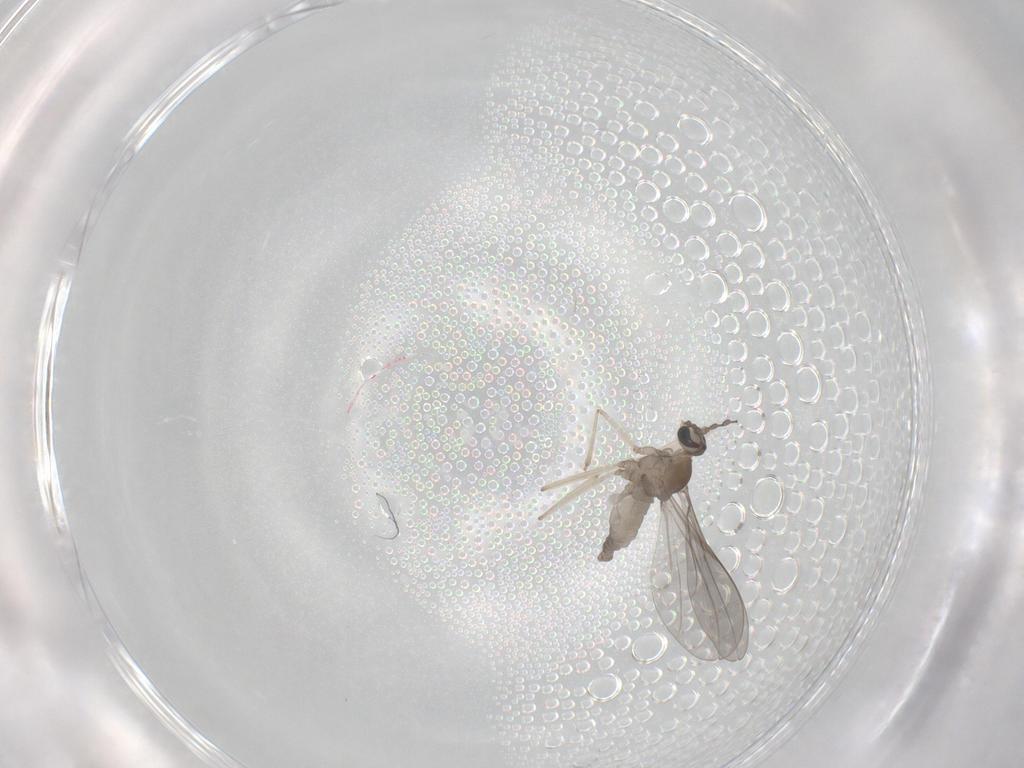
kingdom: Animalia
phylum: Arthropoda
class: Insecta
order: Diptera
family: Cecidomyiidae
